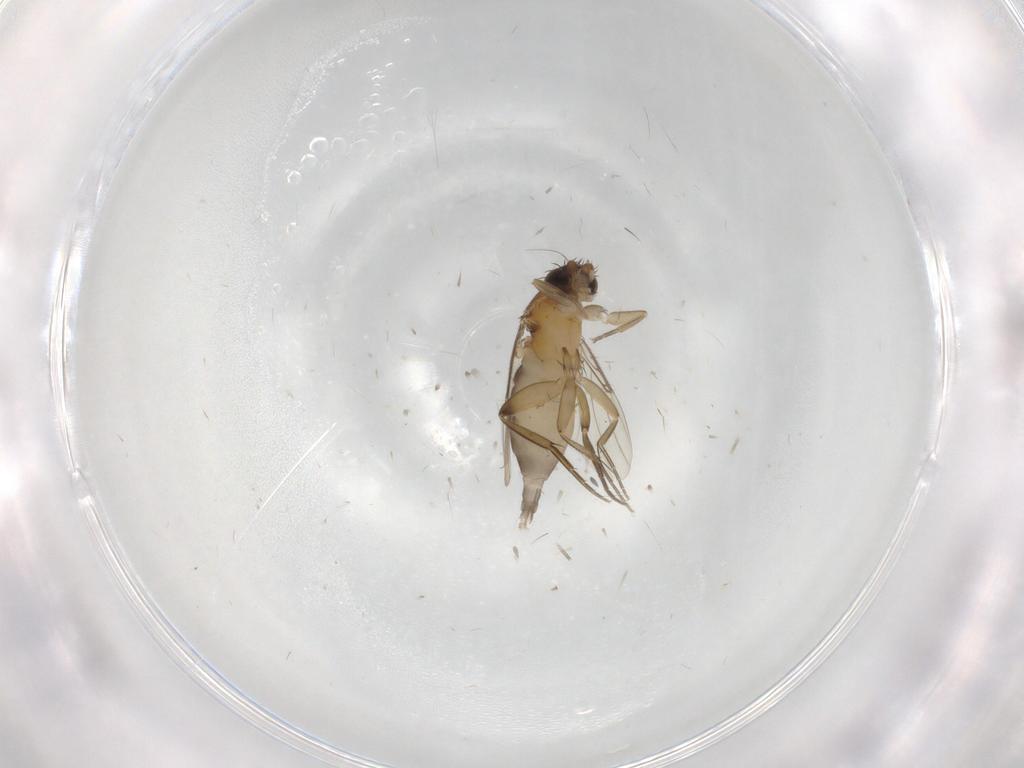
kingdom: Animalia
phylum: Arthropoda
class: Insecta
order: Diptera
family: Phoridae
